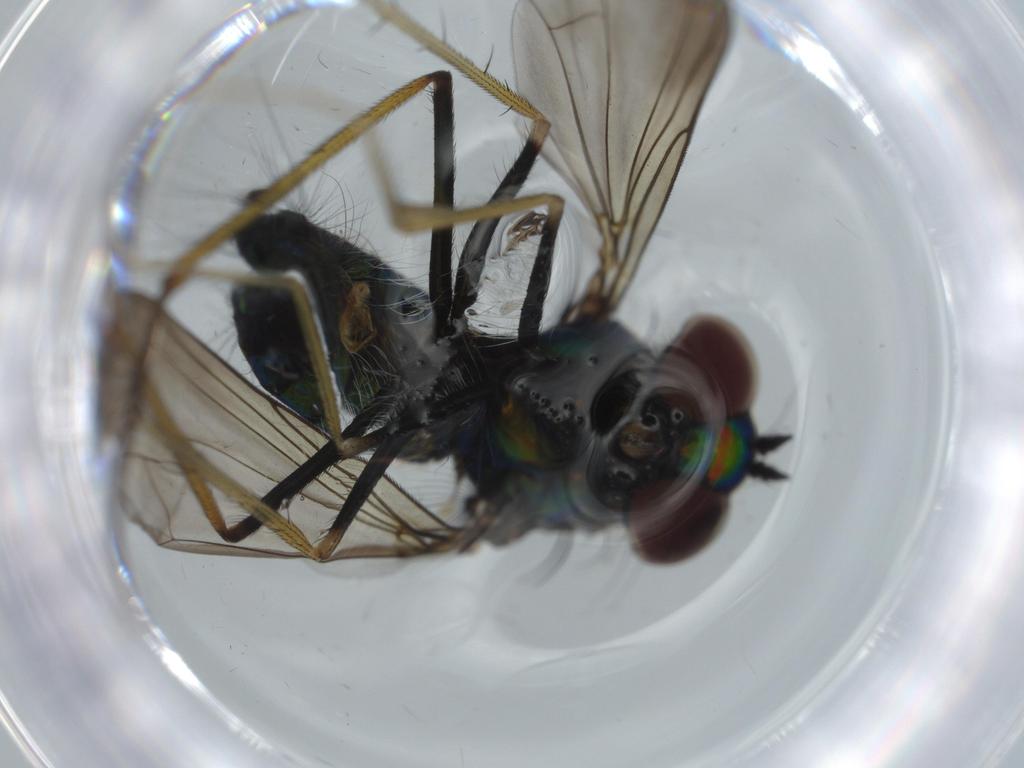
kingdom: Animalia
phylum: Arthropoda
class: Insecta
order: Diptera
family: Dolichopodidae
